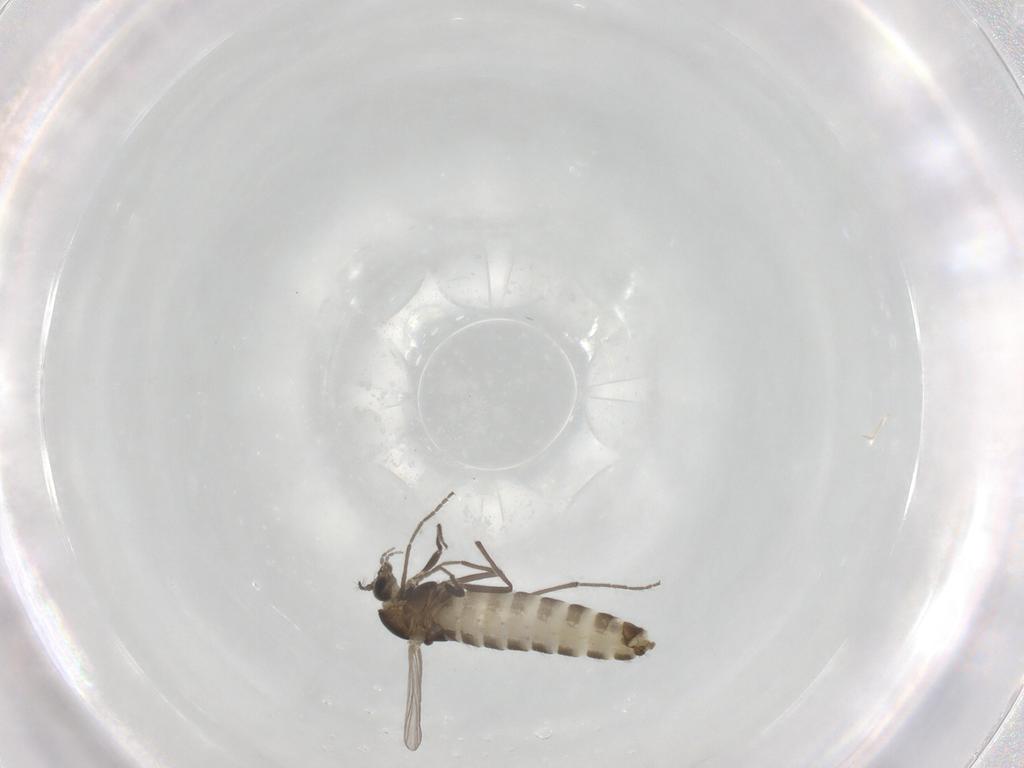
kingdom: Animalia
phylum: Arthropoda
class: Insecta
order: Diptera
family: Chironomidae
